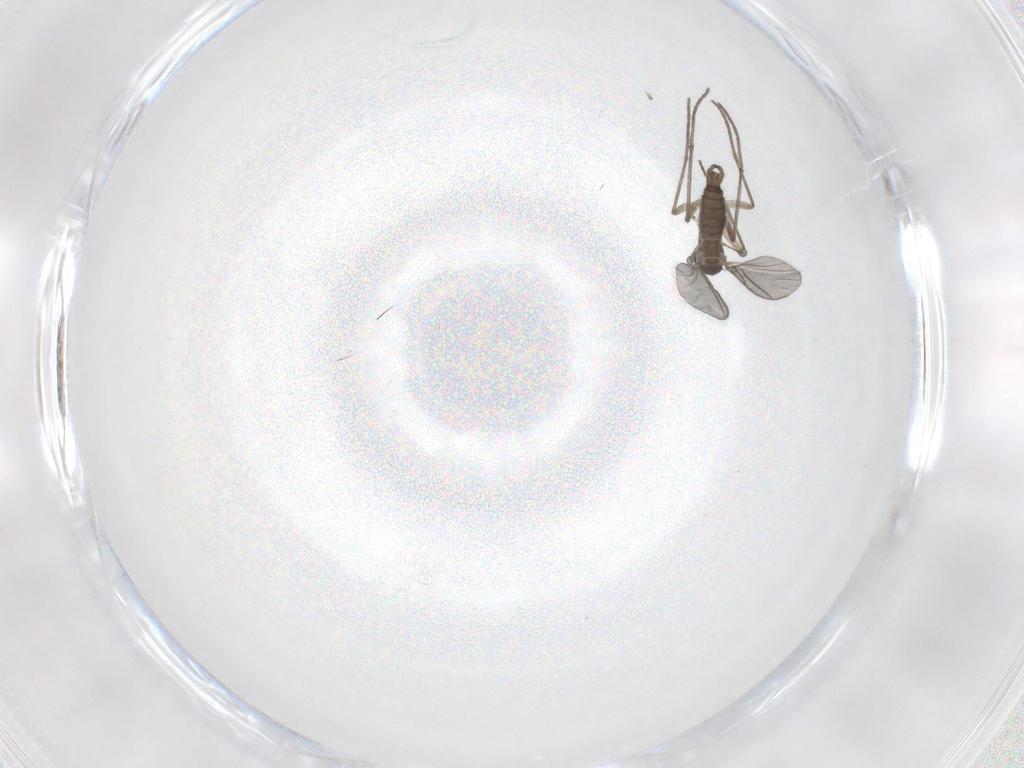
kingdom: Animalia
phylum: Arthropoda
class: Insecta
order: Diptera
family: Sciaridae
